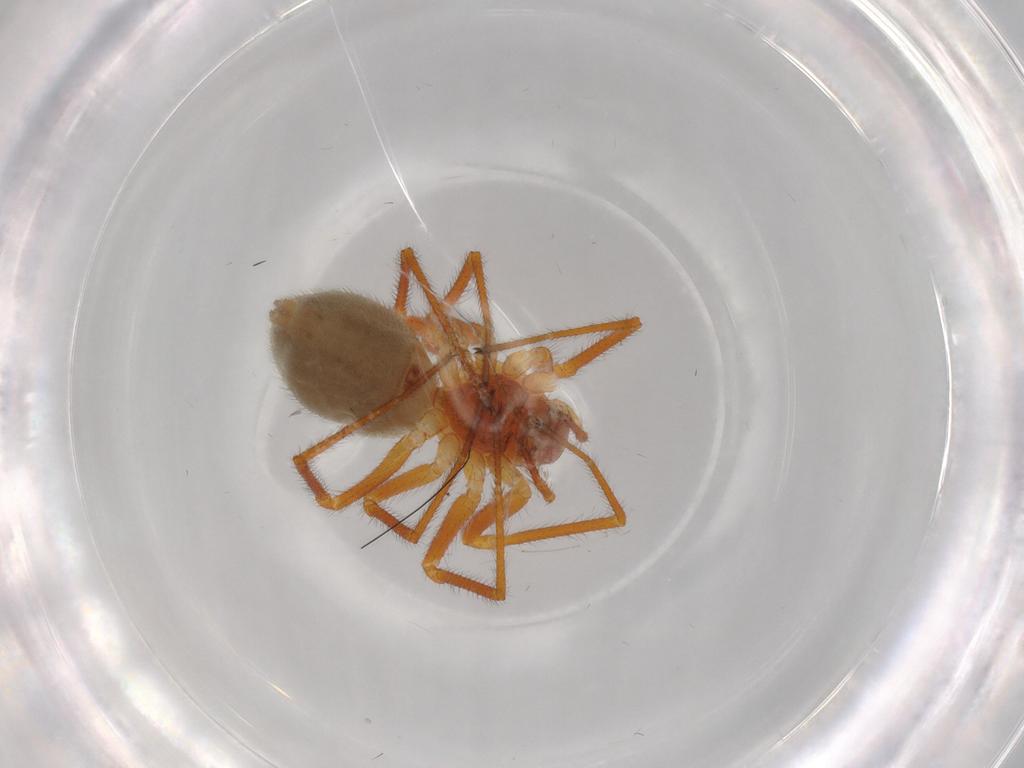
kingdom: Animalia
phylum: Arthropoda
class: Arachnida
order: Araneae
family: Linyphiidae
